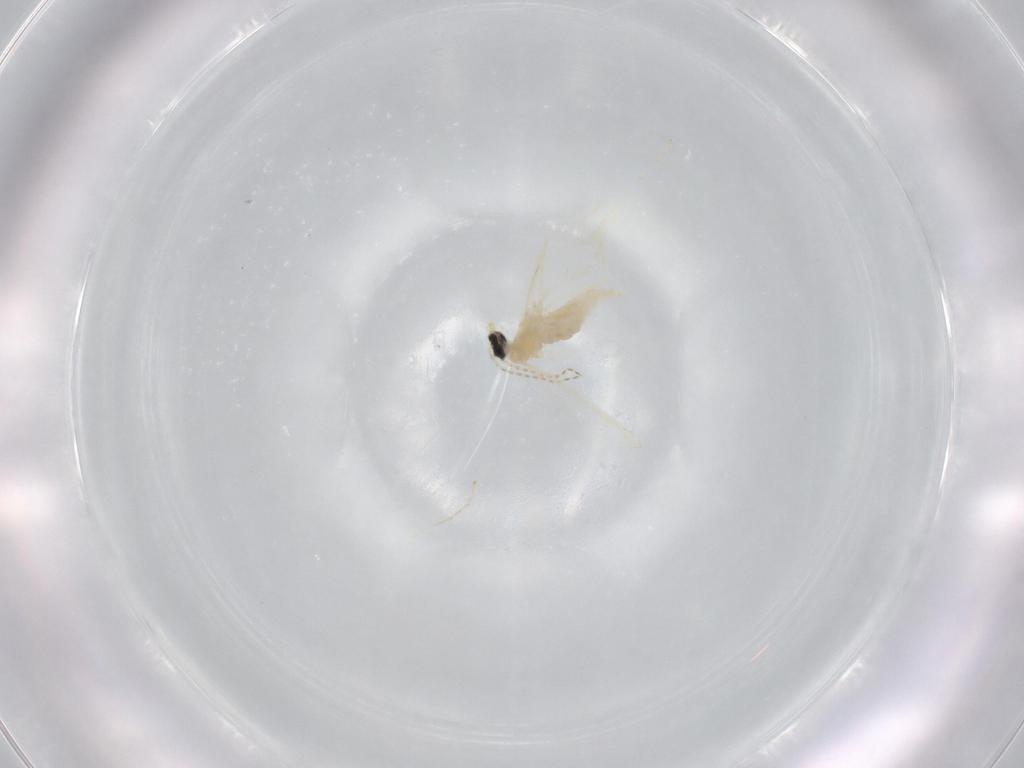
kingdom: Animalia
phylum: Arthropoda
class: Insecta
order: Diptera
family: Cecidomyiidae
